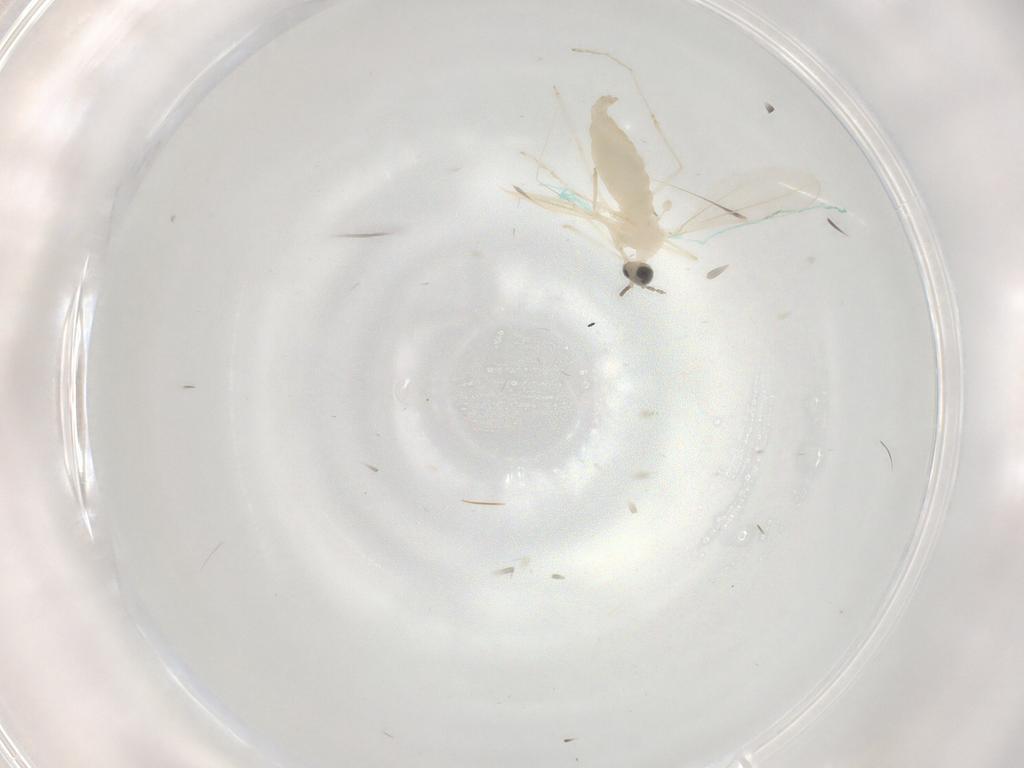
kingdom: Animalia
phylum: Arthropoda
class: Insecta
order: Diptera
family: Cecidomyiidae
